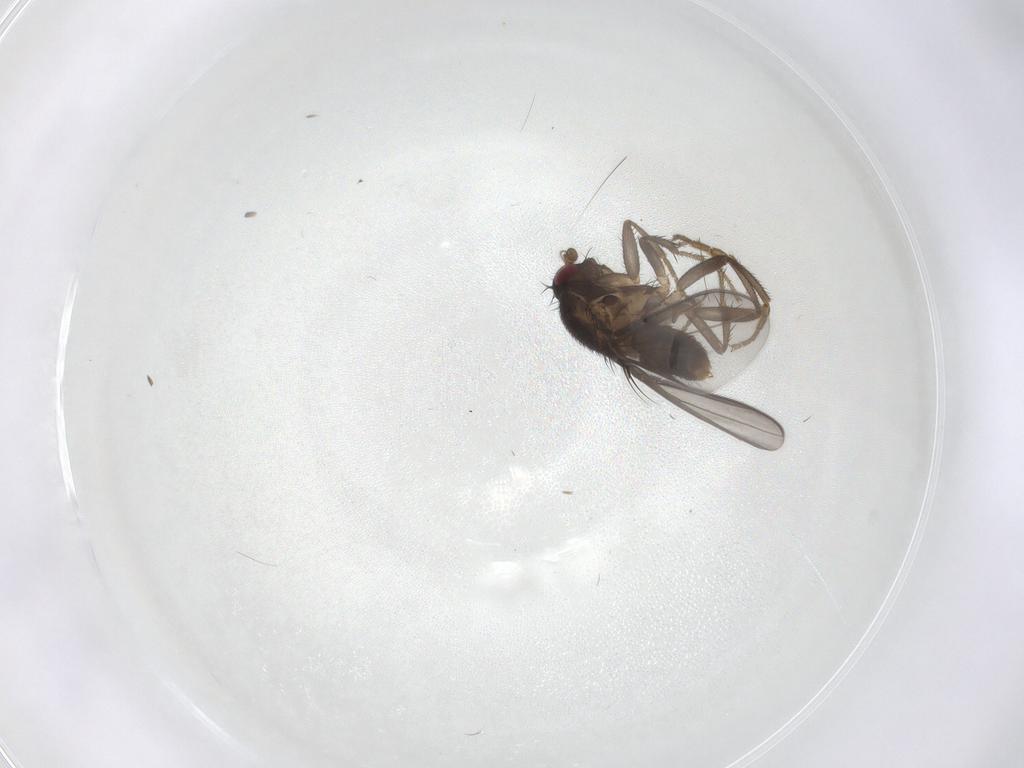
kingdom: Animalia
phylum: Arthropoda
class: Insecta
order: Diptera
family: Sphaeroceridae
